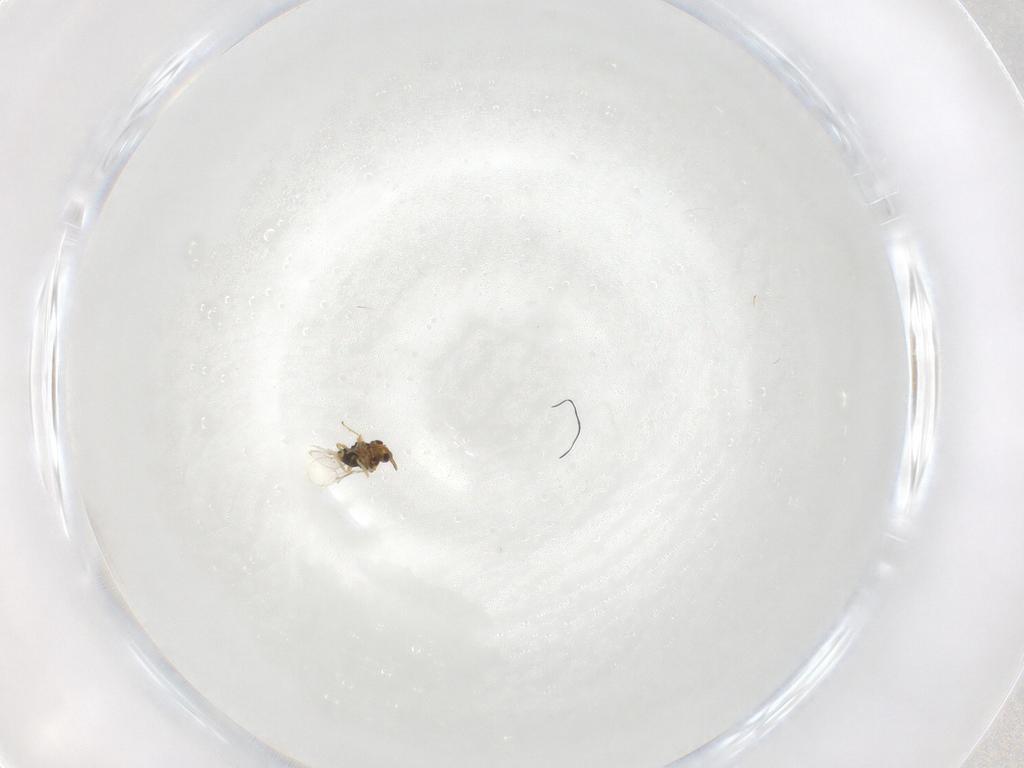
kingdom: Animalia
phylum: Arthropoda
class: Insecta
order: Hymenoptera
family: Aphelinidae
